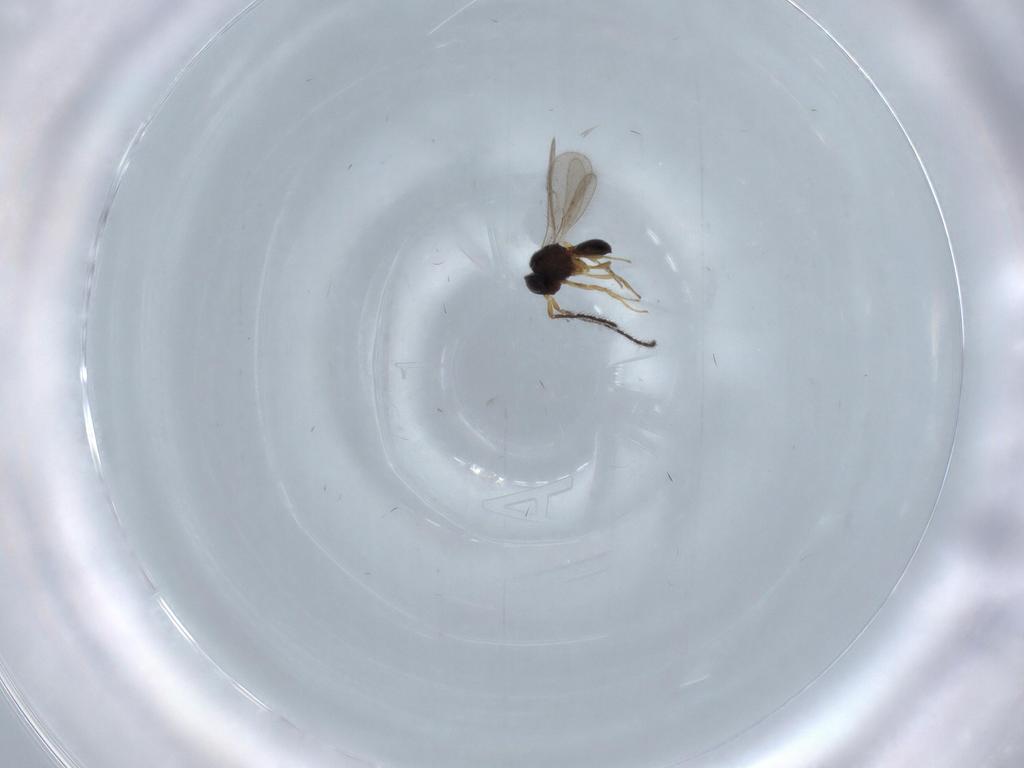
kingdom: Animalia
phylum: Arthropoda
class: Insecta
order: Hymenoptera
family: Scelionidae
